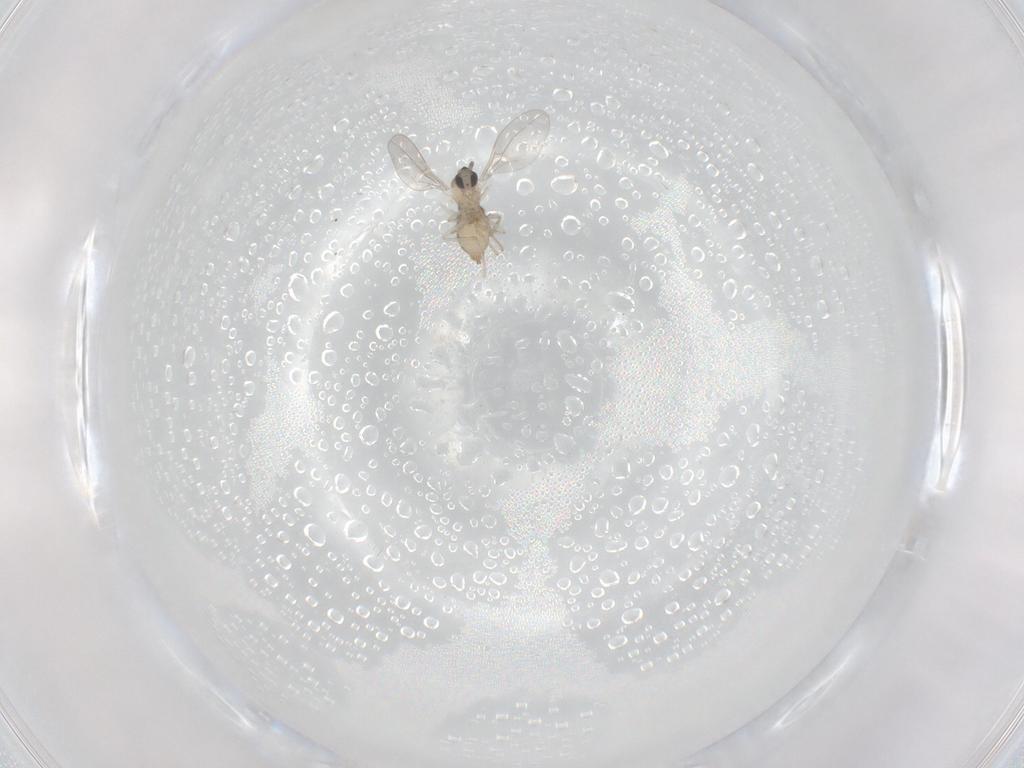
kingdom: Animalia
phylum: Arthropoda
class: Insecta
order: Diptera
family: Cecidomyiidae
